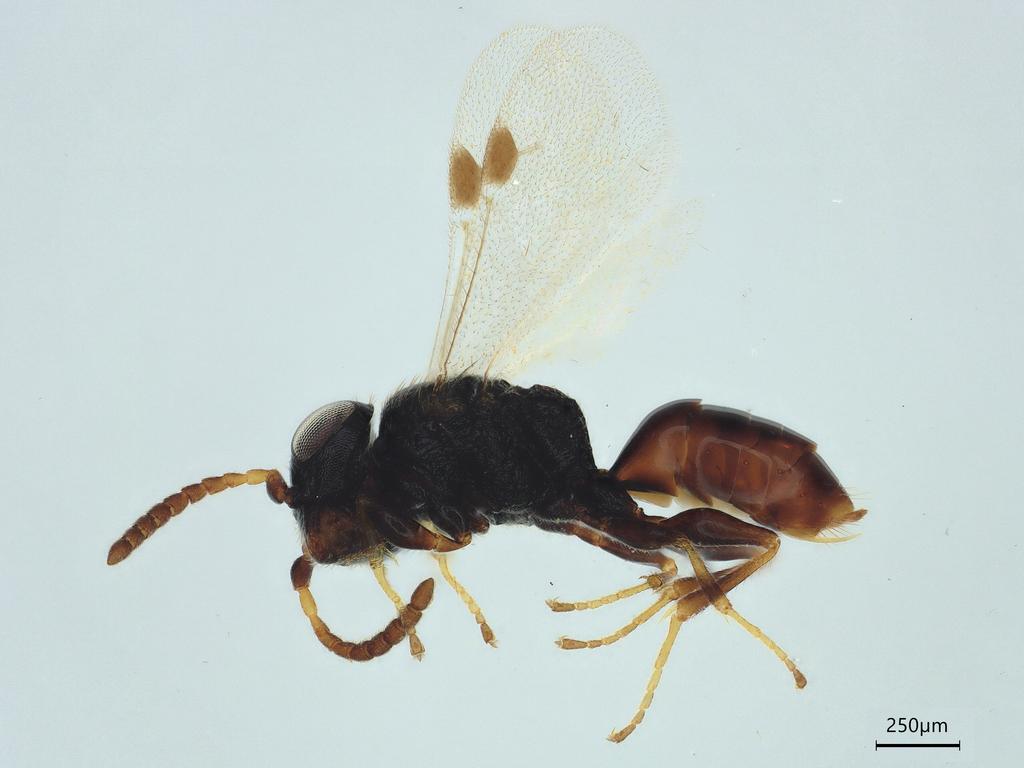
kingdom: Animalia
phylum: Arthropoda
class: Insecta
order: Hymenoptera
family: Dryinidae
